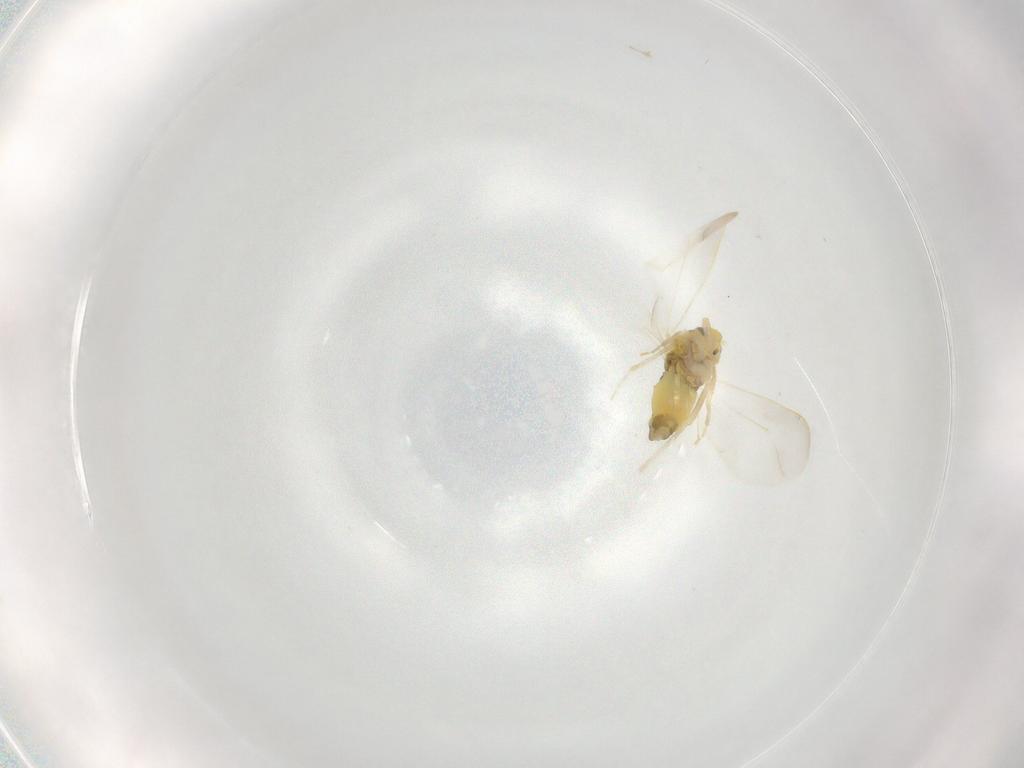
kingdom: Animalia
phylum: Arthropoda
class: Insecta
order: Hemiptera
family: Aleyrodidae
